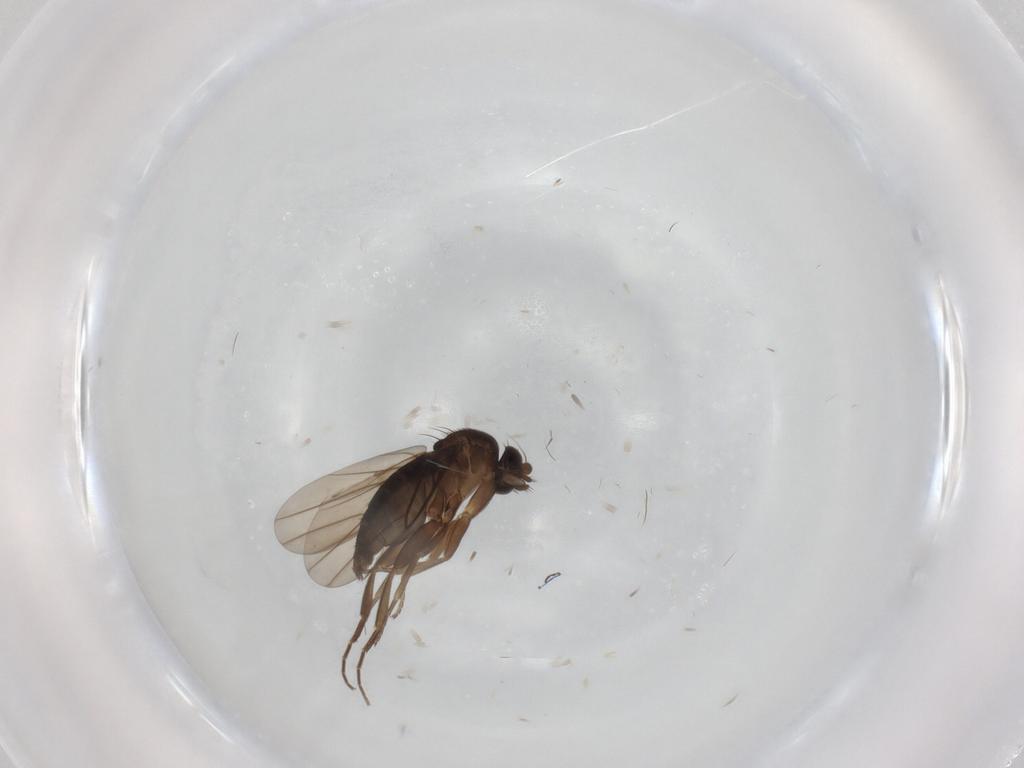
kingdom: Animalia
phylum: Arthropoda
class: Insecta
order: Diptera
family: Phoridae
